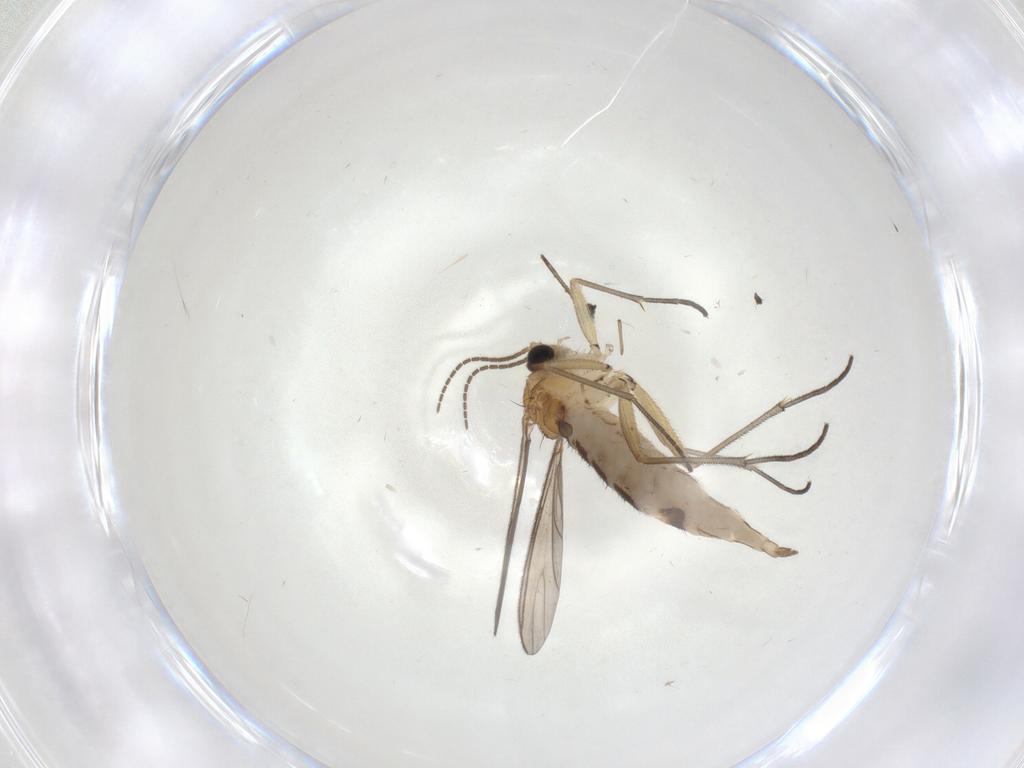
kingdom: Animalia
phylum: Arthropoda
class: Insecta
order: Diptera
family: Sciaridae
